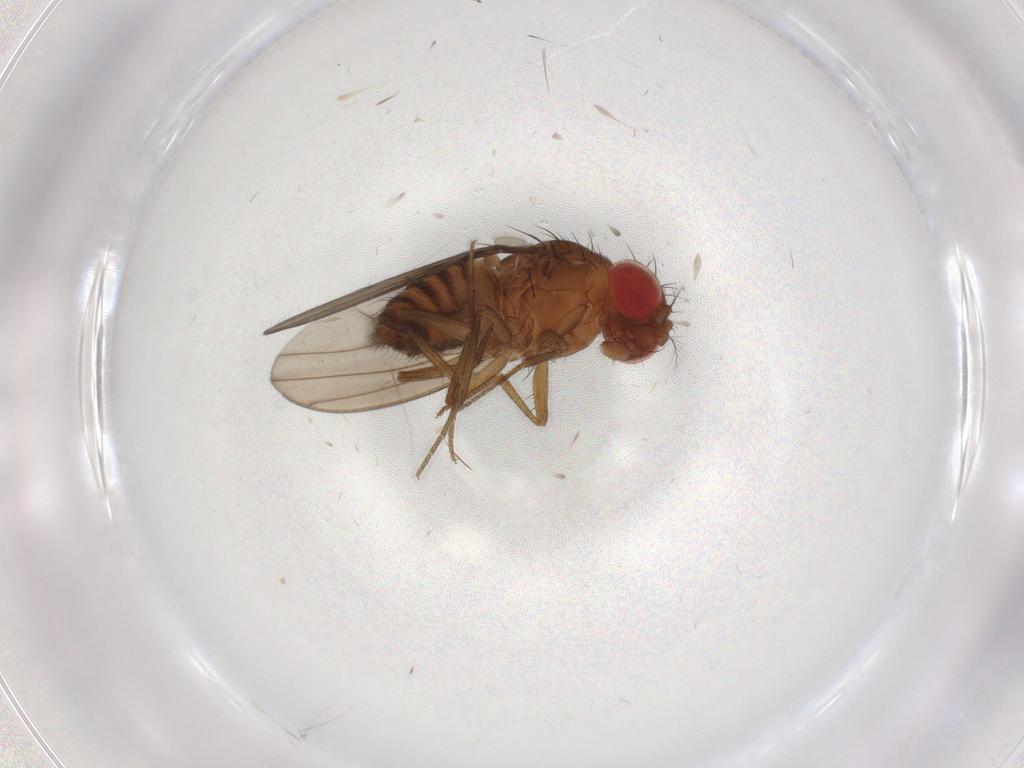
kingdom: Animalia
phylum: Arthropoda
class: Insecta
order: Diptera
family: Drosophilidae
